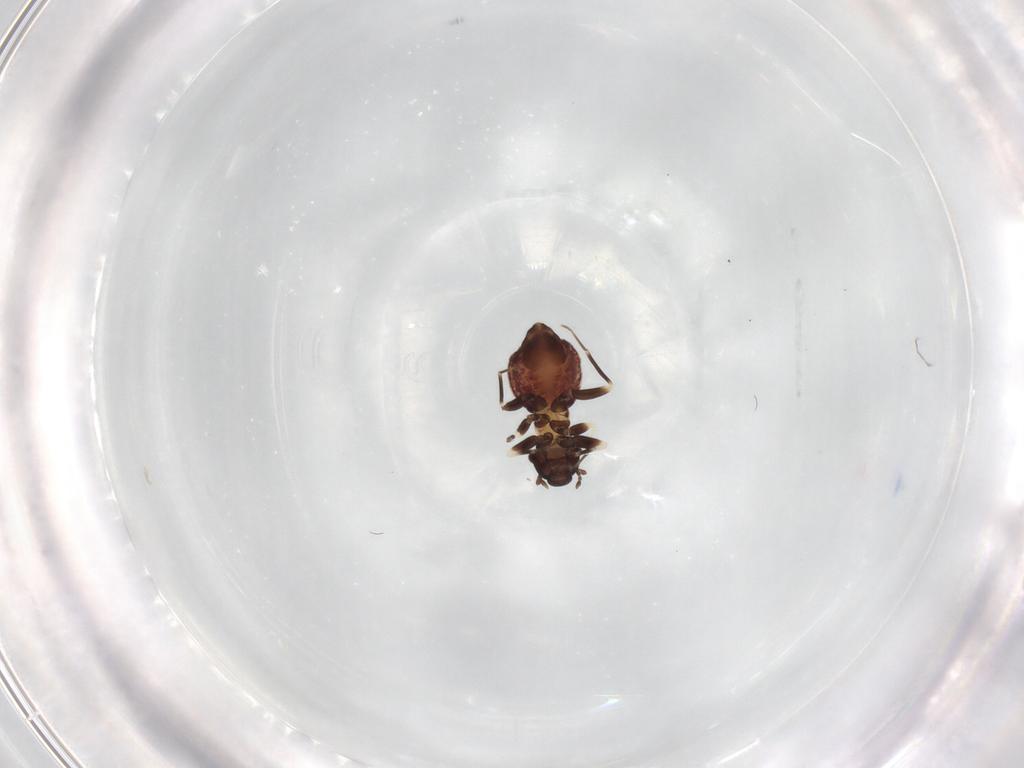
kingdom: Animalia
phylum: Arthropoda
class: Insecta
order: Psocodea
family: Lepidopsocidae
